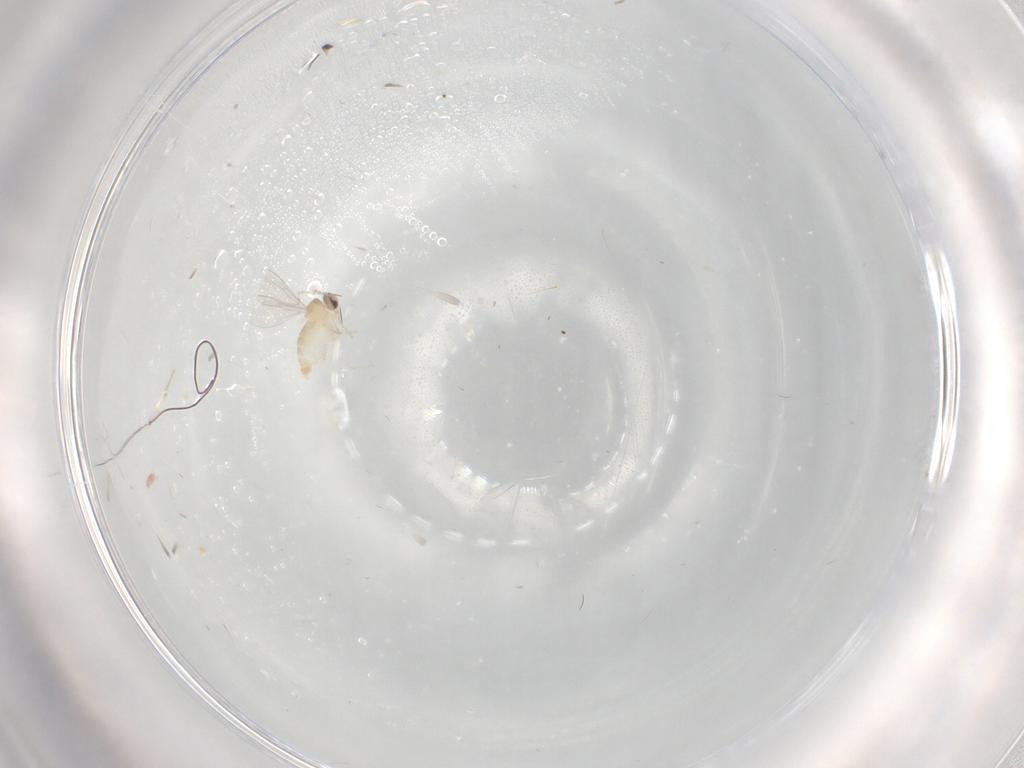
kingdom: Animalia
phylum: Arthropoda
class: Insecta
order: Diptera
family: Cecidomyiidae
